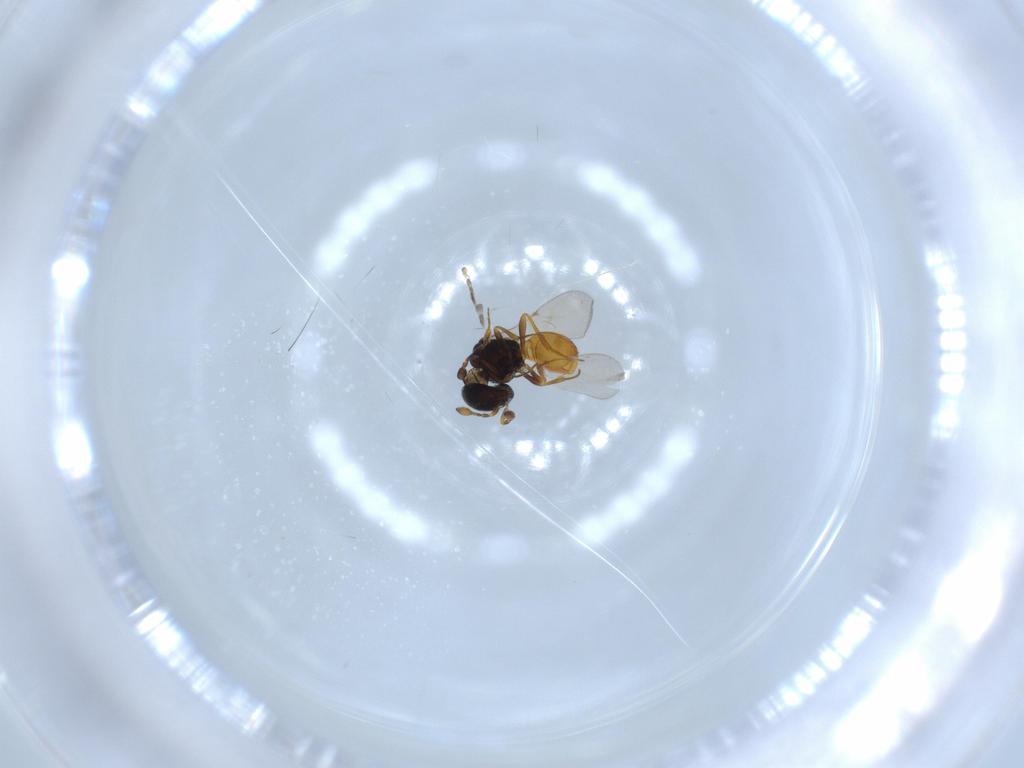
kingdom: Animalia
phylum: Arthropoda
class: Insecta
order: Hymenoptera
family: Scelionidae
